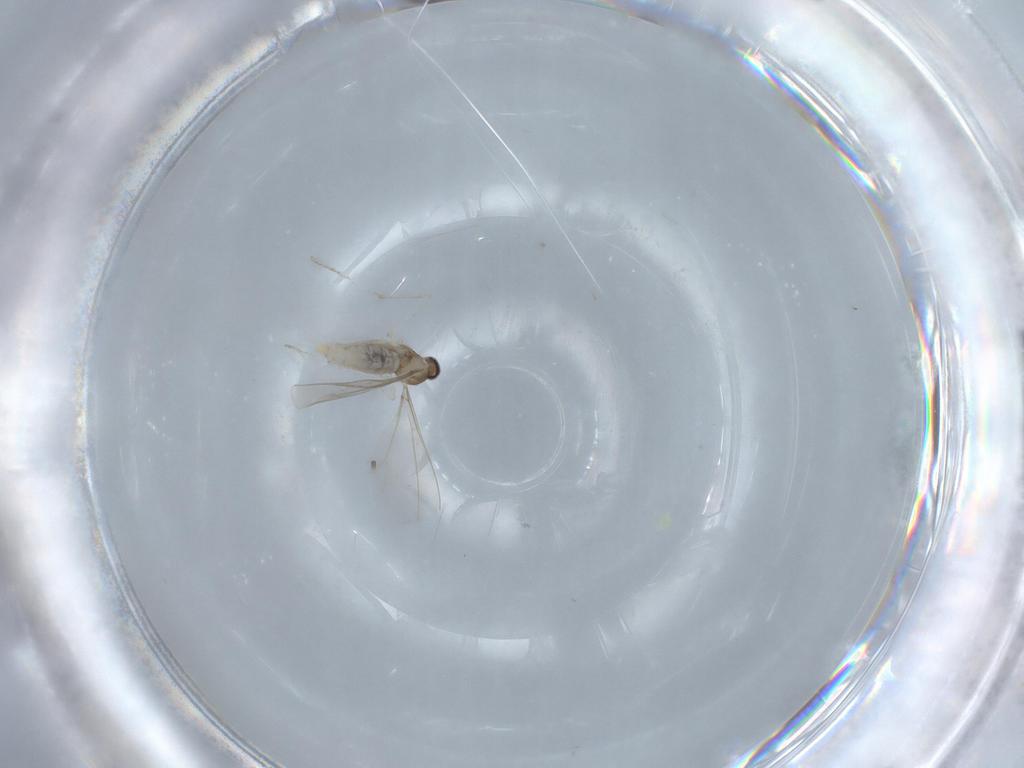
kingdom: Animalia
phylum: Arthropoda
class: Insecta
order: Diptera
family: Cecidomyiidae
